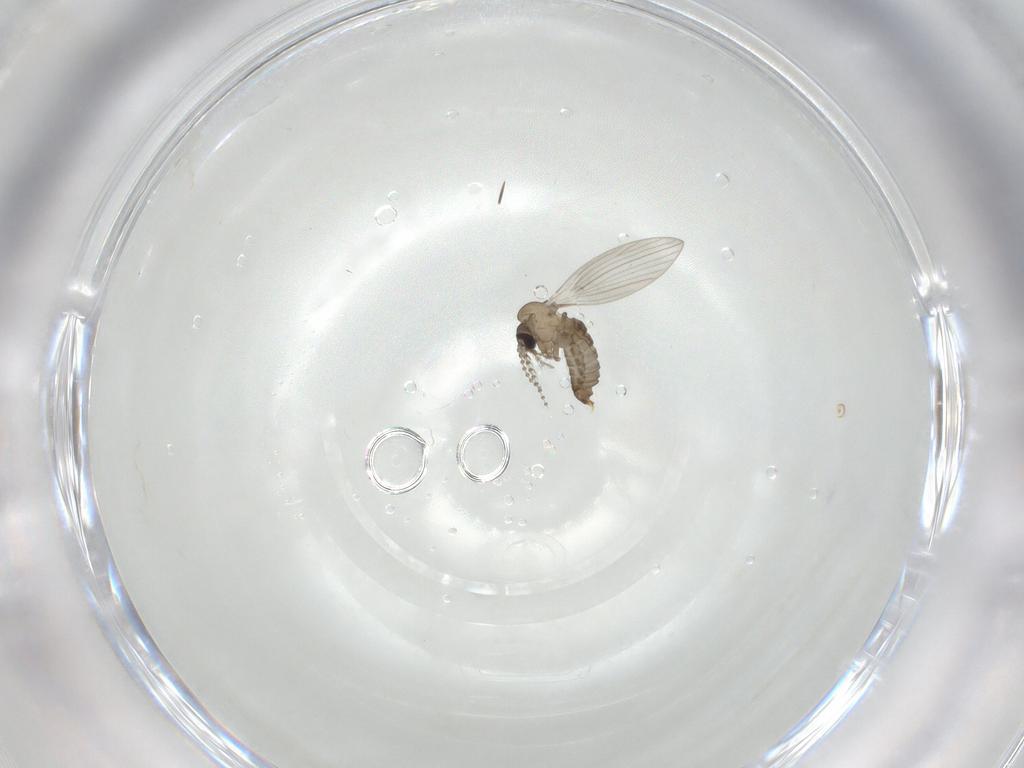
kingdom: Animalia
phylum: Arthropoda
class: Insecta
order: Diptera
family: Psychodidae
